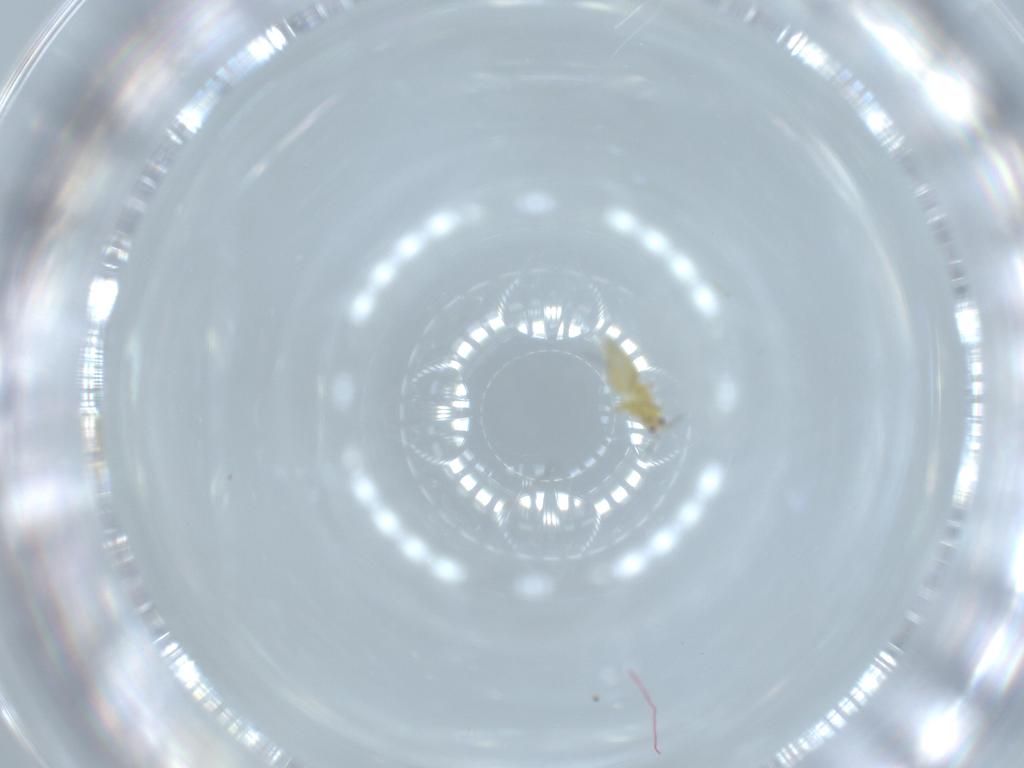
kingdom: Animalia
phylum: Arthropoda
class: Insecta
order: Thysanoptera
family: Thripidae
